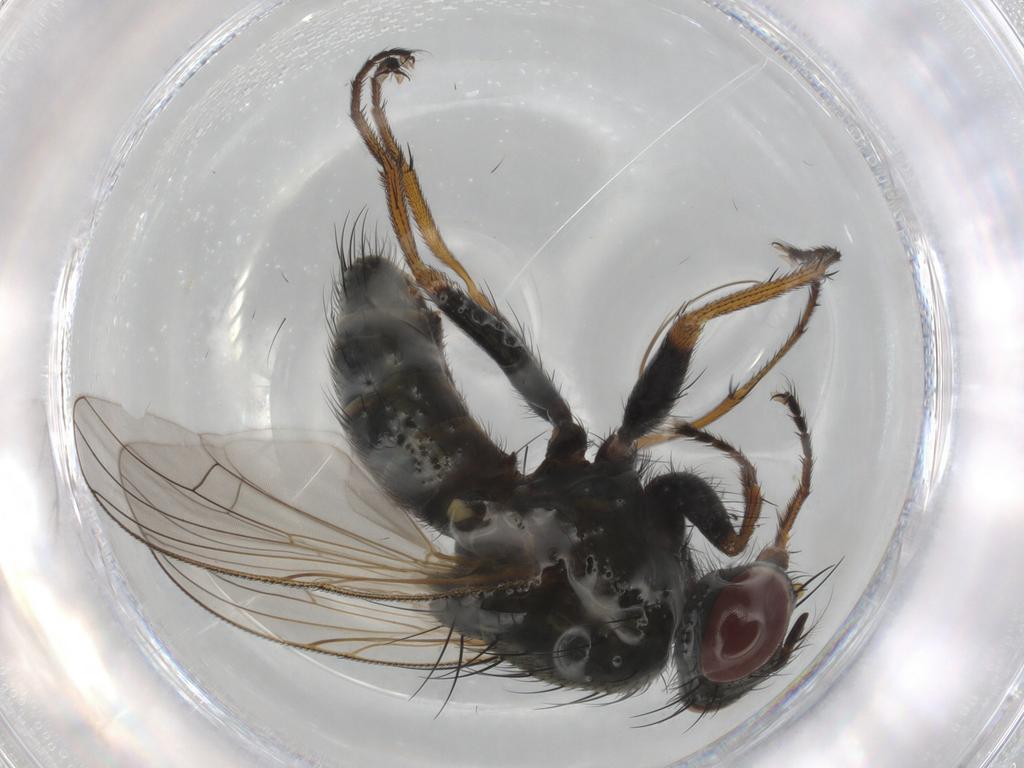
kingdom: Animalia
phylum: Arthropoda
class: Insecta
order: Diptera
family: Muscidae
